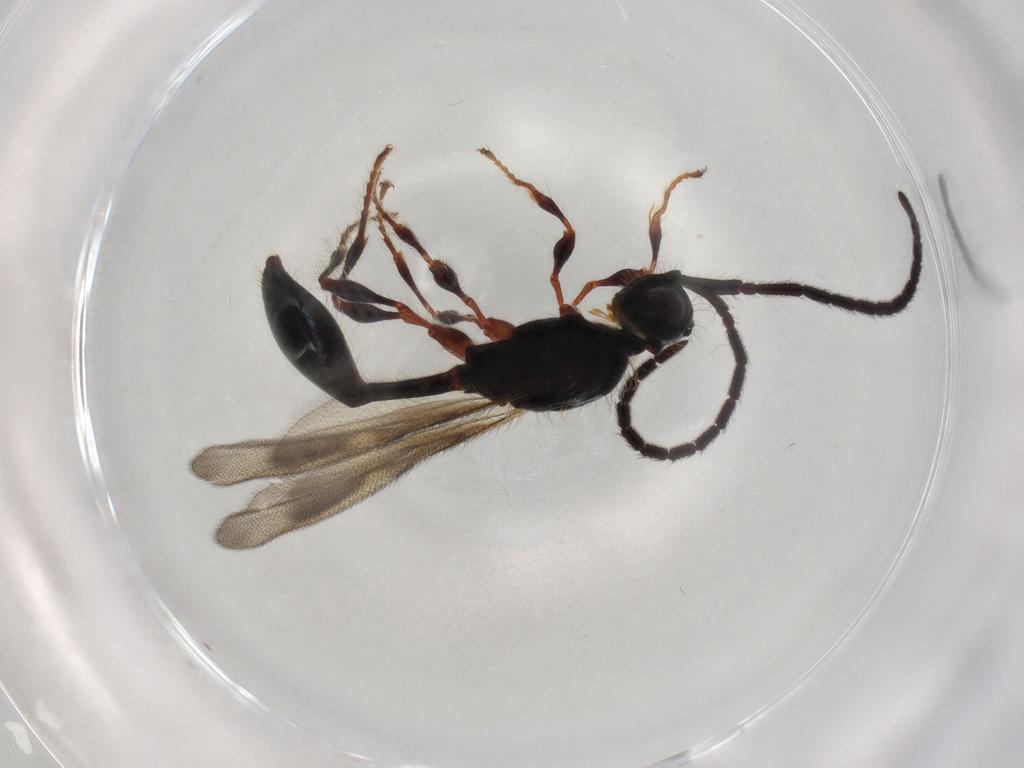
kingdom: Animalia
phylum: Arthropoda
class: Insecta
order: Hymenoptera
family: Diapriidae
